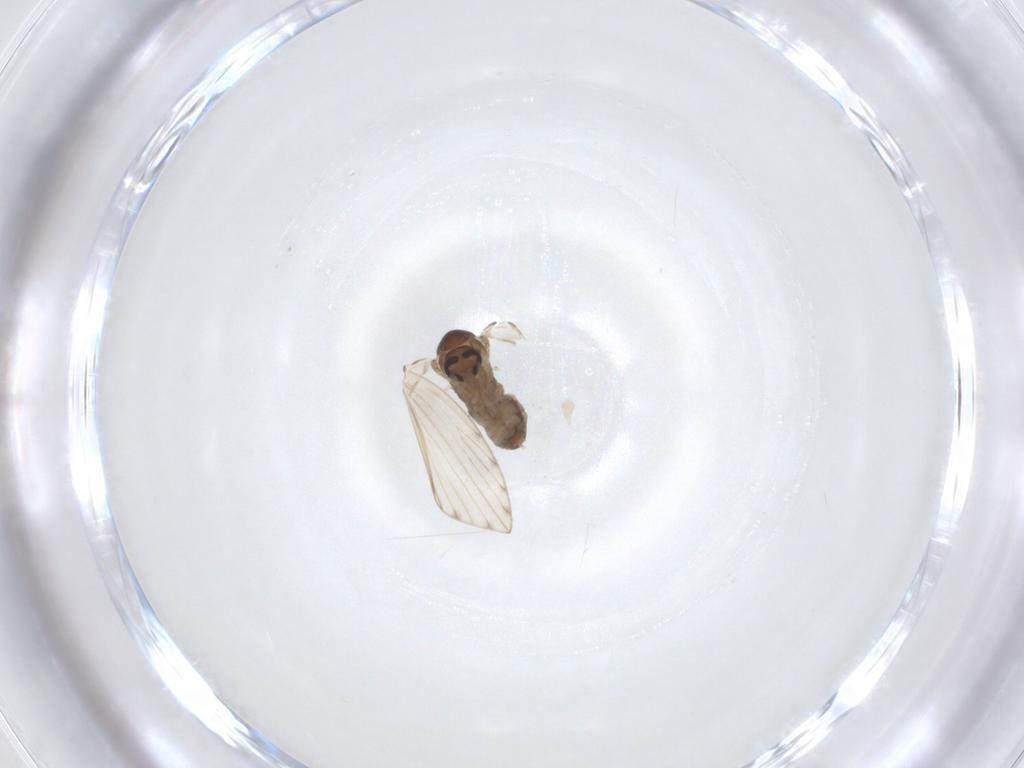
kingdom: Animalia
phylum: Arthropoda
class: Insecta
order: Diptera
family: Psychodidae
